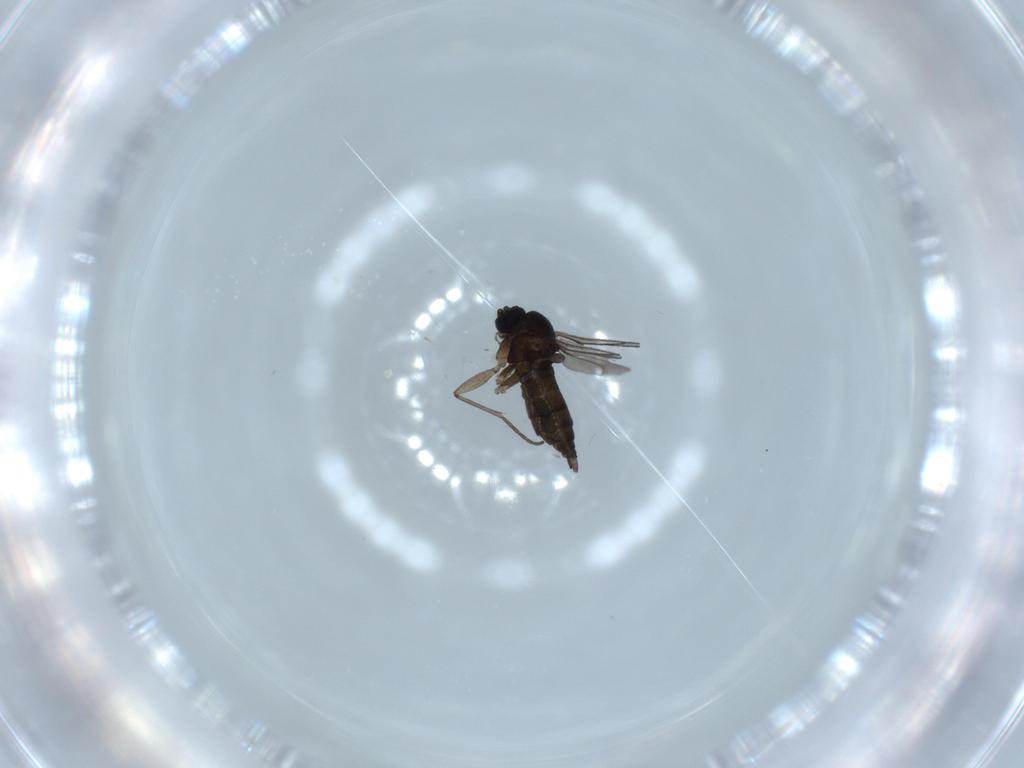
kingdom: Animalia
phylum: Arthropoda
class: Insecta
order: Diptera
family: Sciaridae
